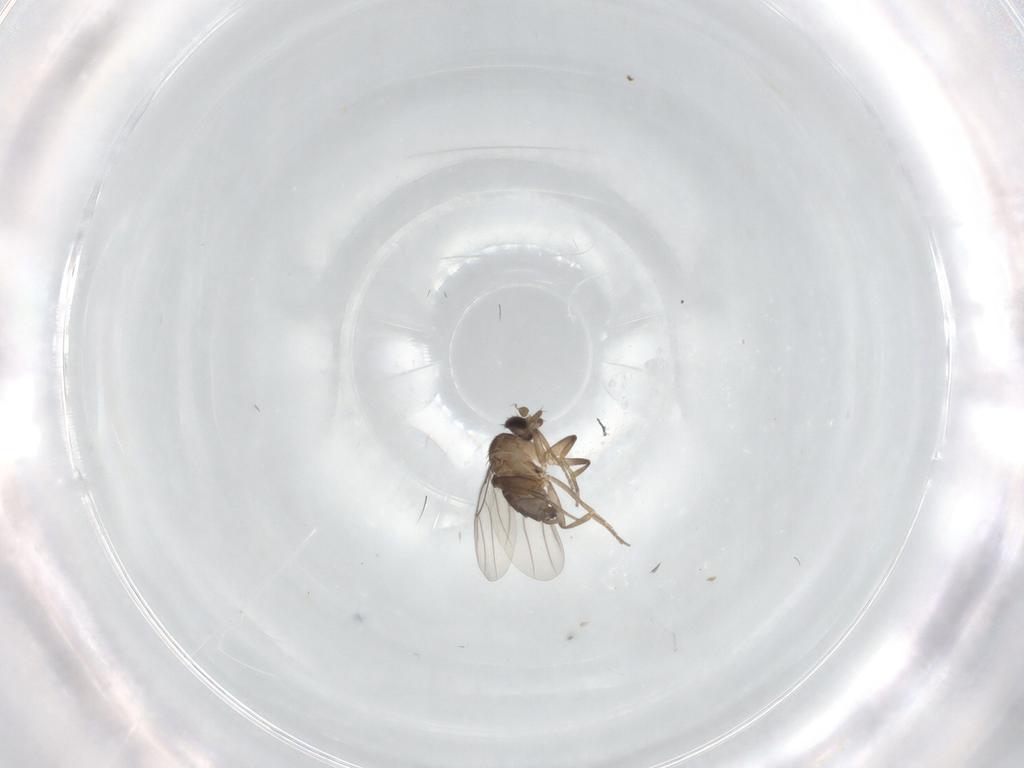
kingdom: Animalia
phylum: Arthropoda
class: Insecta
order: Diptera
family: Phoridae
